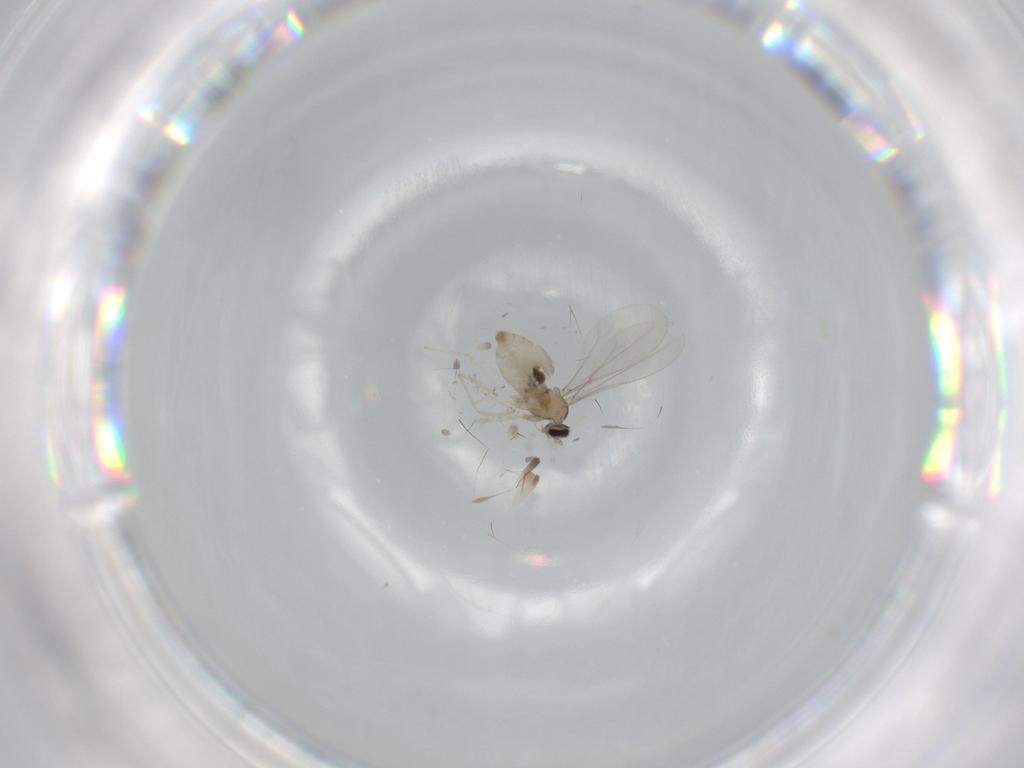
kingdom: Animalia
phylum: Arthropoda
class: Insecta
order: Diptera
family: Cecidomyiidae
